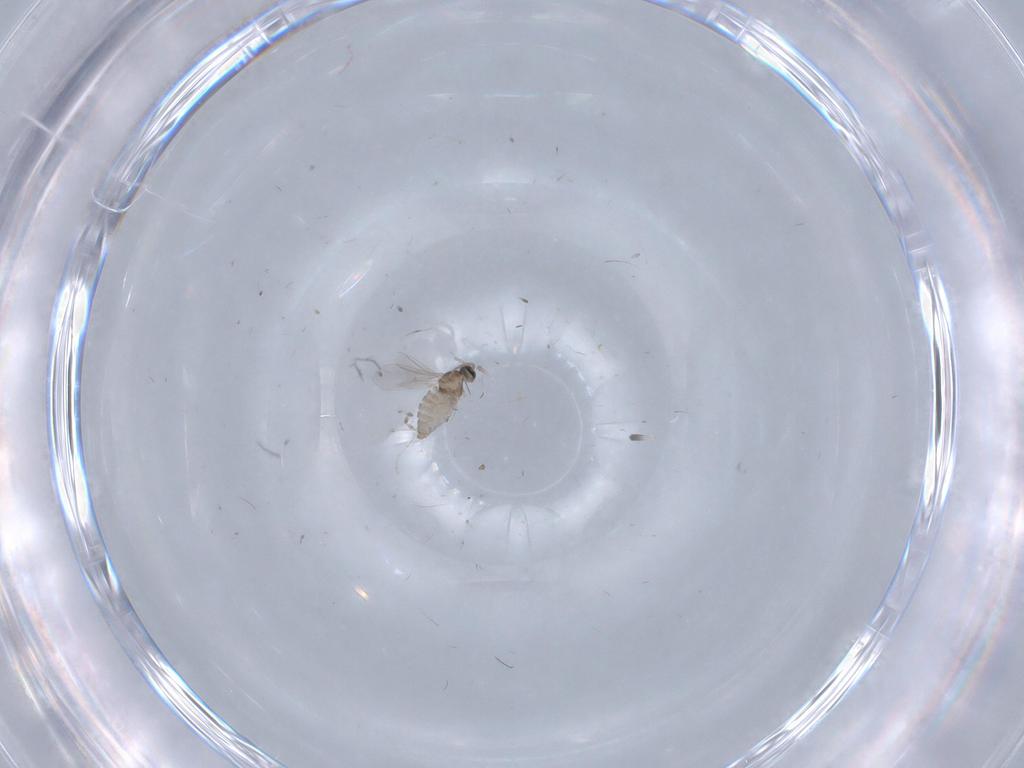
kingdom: Animalia
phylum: Arthropoda
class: Insecta
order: Diptera
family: Cecidomyiidae
